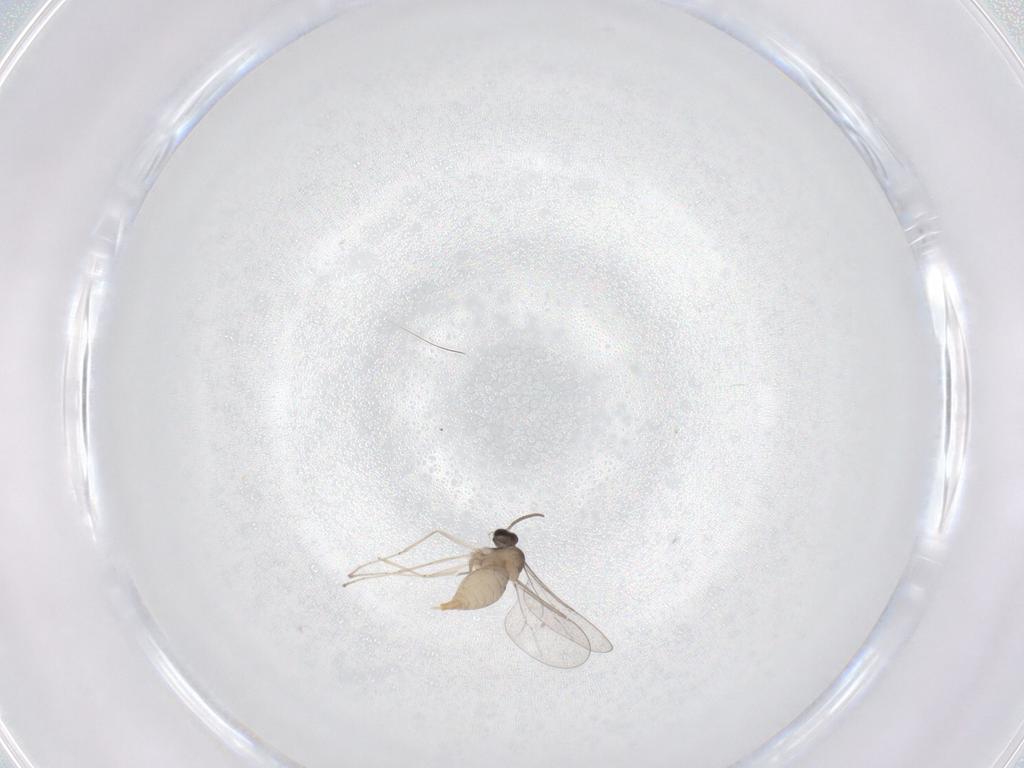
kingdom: Animalia
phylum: Arthropoda
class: Insecta
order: Diptera
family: Cecidomyiidae
